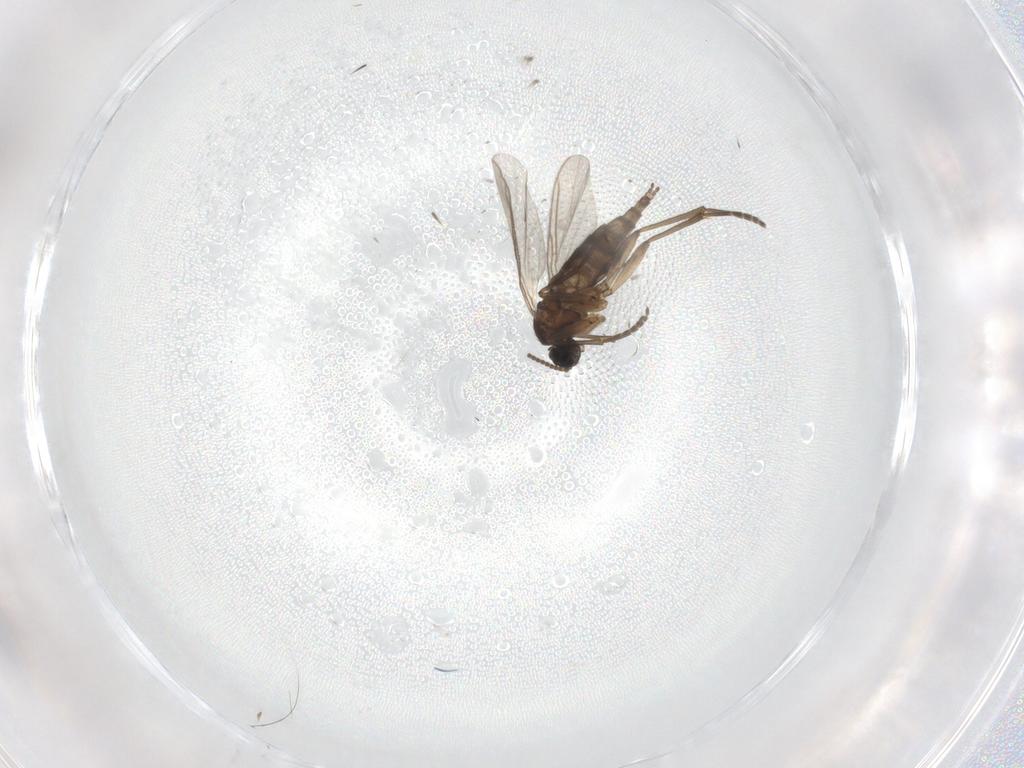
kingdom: Animalia
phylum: Arthropoda
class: Insecta
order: Diptera
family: Sciaridae
